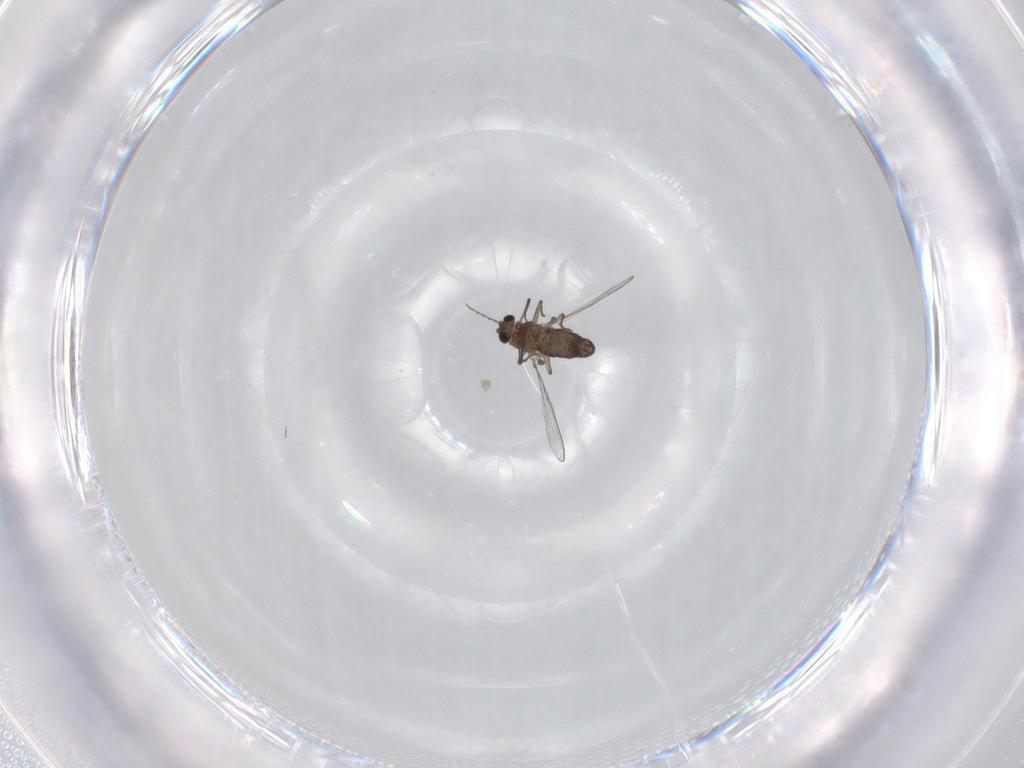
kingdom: Animalia
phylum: Arthropoda
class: Insecta
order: Diptera
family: Chironomidae
